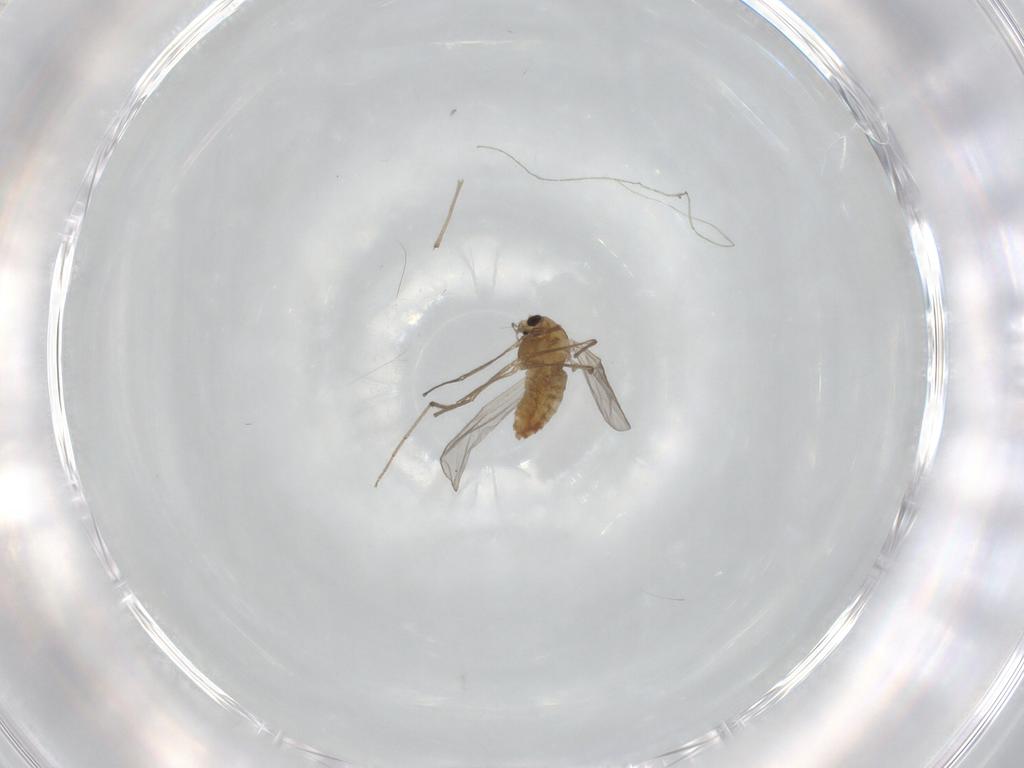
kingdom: Animalia
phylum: Arthropoda
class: Insecta
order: Diptera
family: Chironomidae
